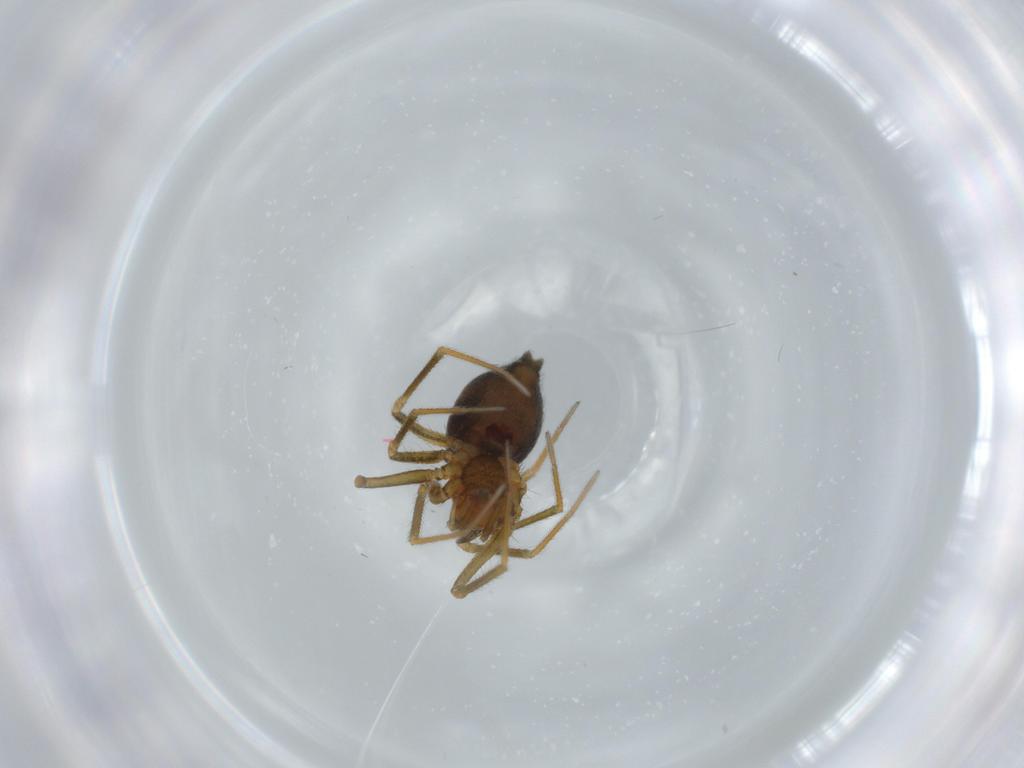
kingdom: Animalia
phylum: Arthropoda
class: Arachnida
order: Araneae
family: Linyphiidae
